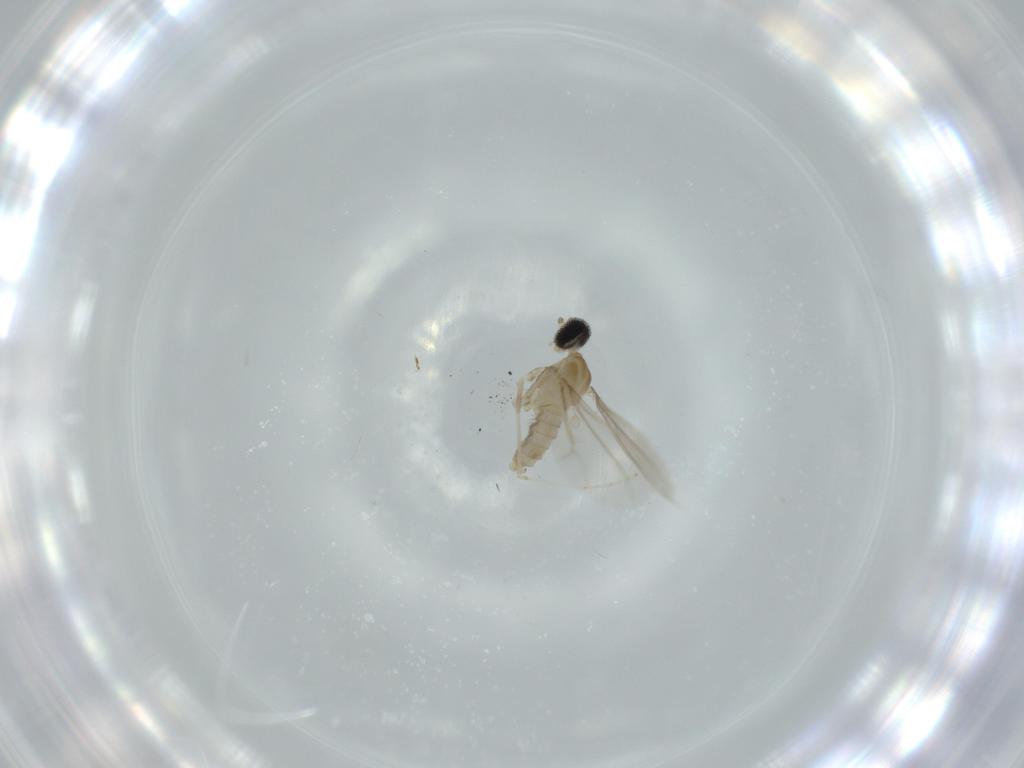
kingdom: Animalia
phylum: Arthropoda
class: Insecta
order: Diptera
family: Cecidomyiidae
